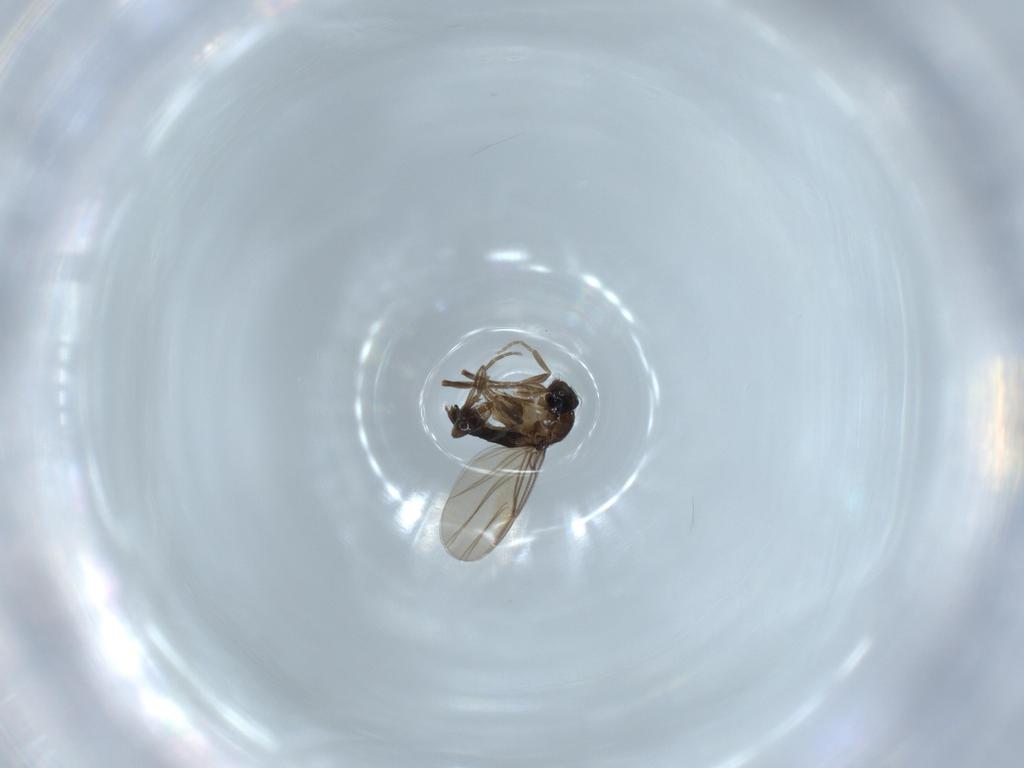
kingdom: Animalia
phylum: Arthropoda
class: Insecta
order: Diptera
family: Phoridae
